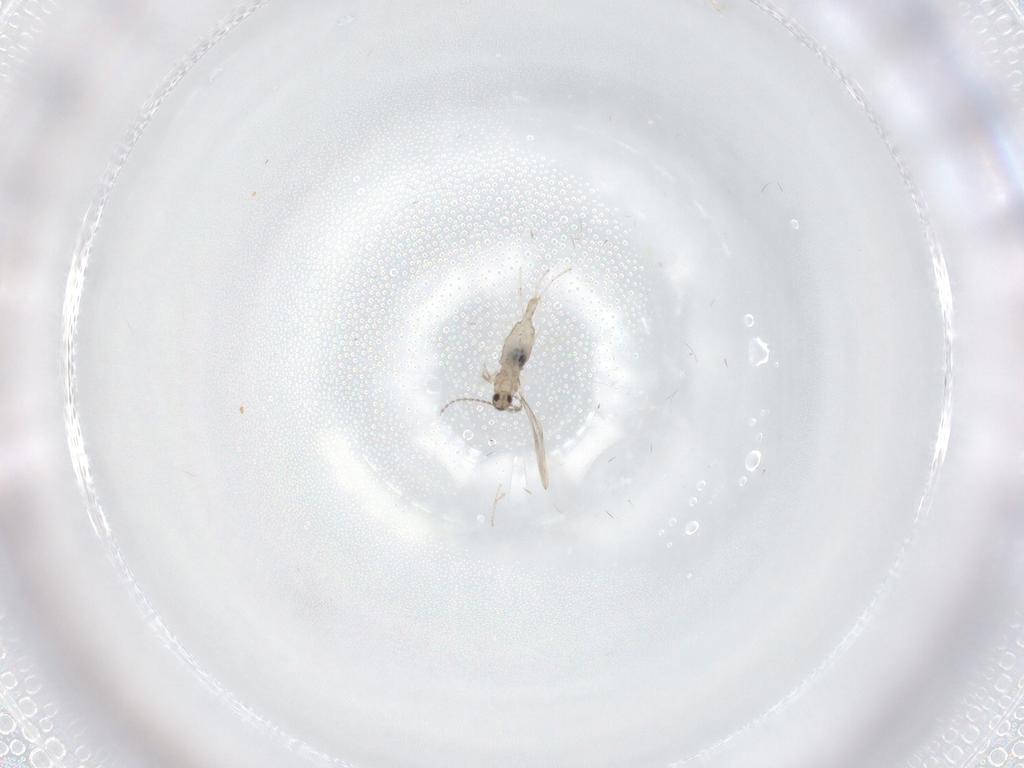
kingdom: Animalia
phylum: Arthropoda
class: Insecta
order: Diptera
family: Chironomidae
